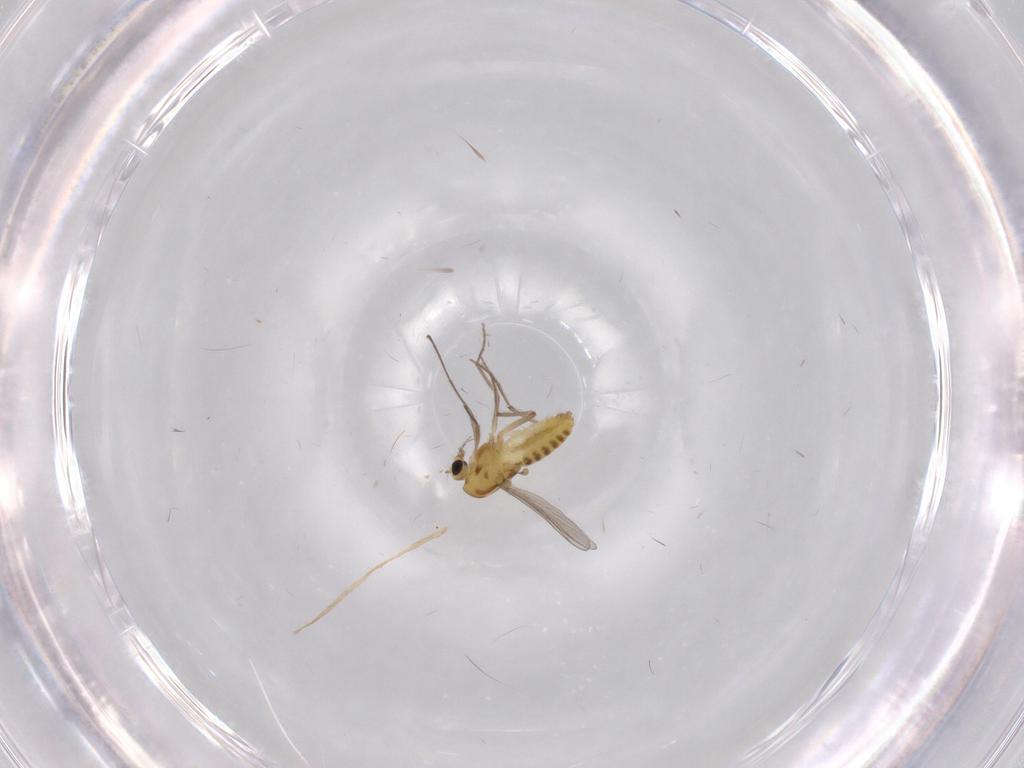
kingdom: Animalia
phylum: Arthropoda
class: Insecta
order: Diptera
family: Chironomidae
